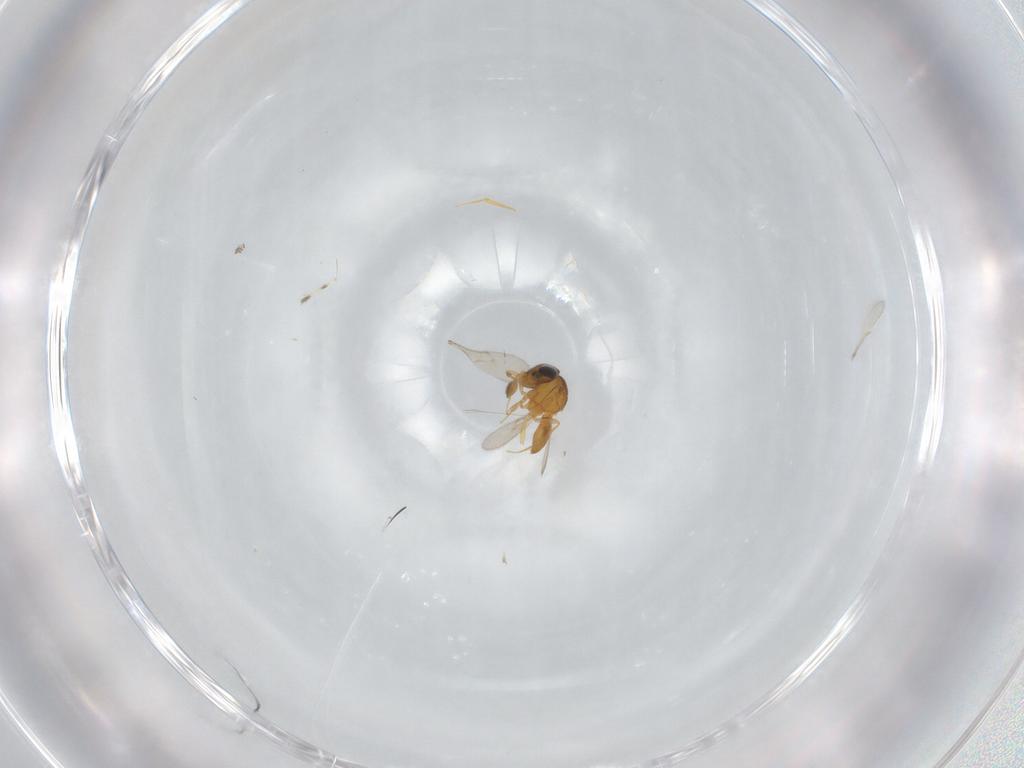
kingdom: Animalia
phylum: Arthropoda
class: Insecta
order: Hymenoptera
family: Scelionidae
